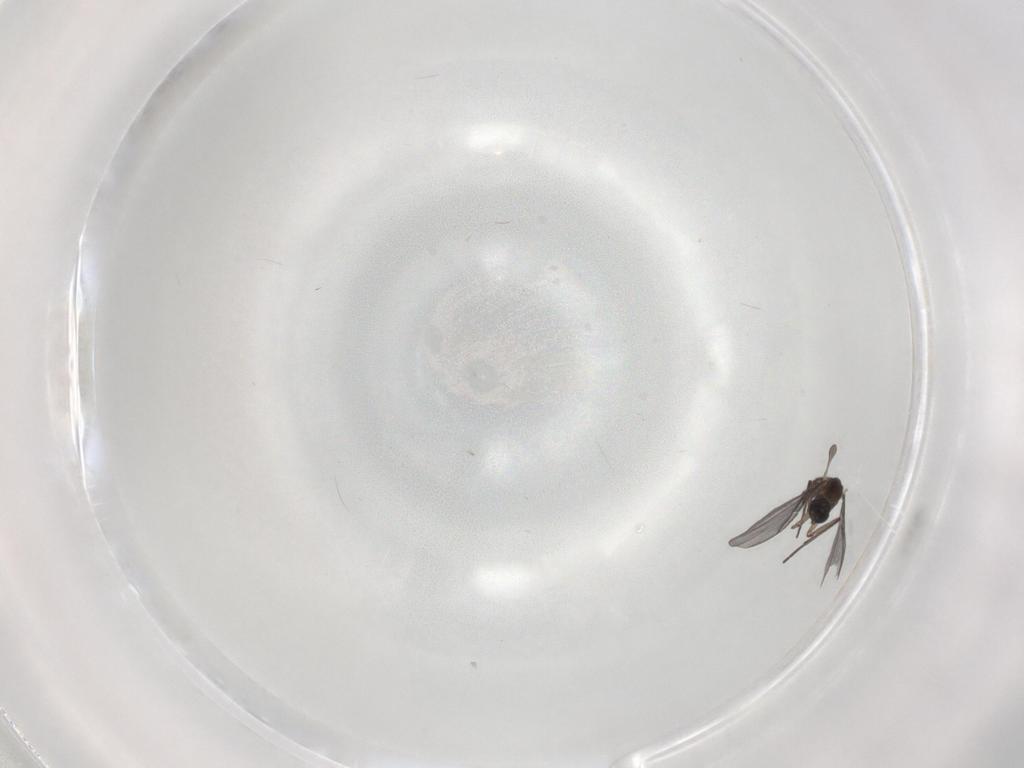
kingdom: Animalia
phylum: Arthropoda
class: Insecta
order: Diptera
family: Sciaridae
